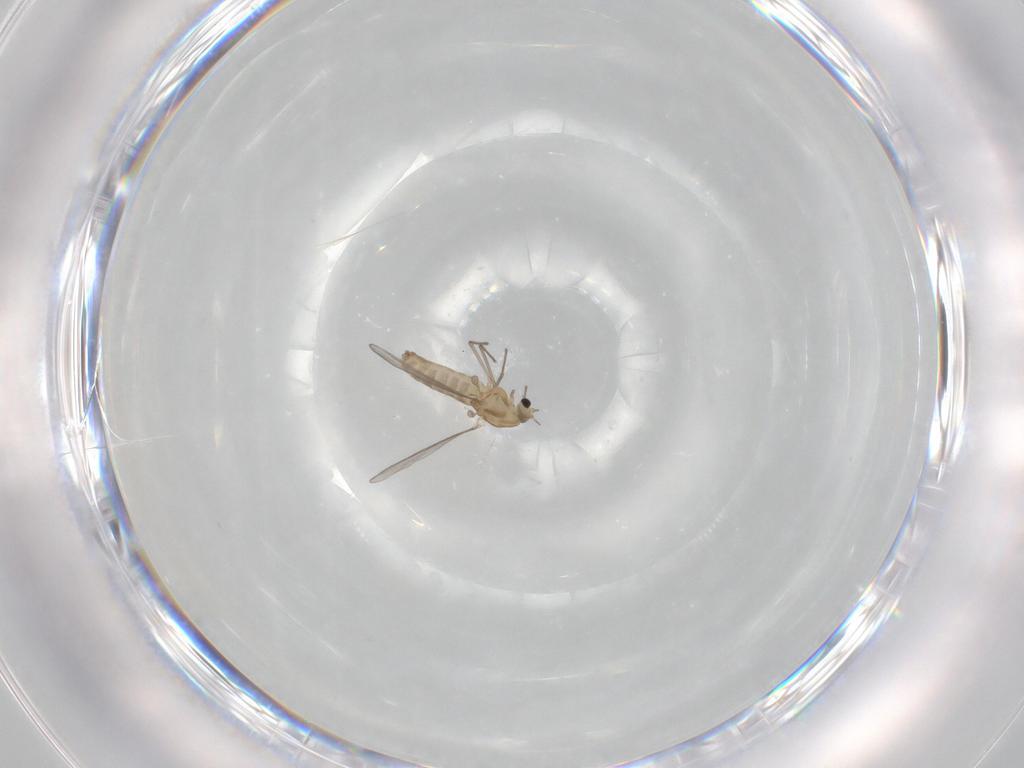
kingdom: Animalia
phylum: Arthropoda
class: Insecta
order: Diptera
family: Chironomidae
